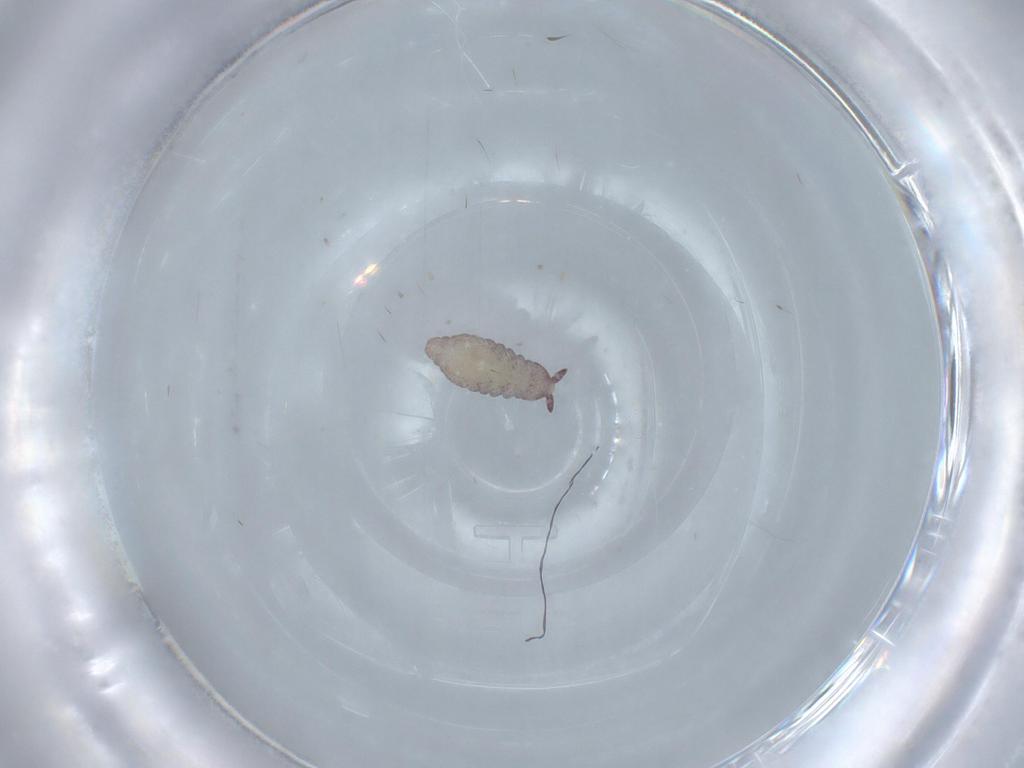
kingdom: Animalia
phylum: Arthropoda
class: Collembola
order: Poduromorpha
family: Hypogastruridae
